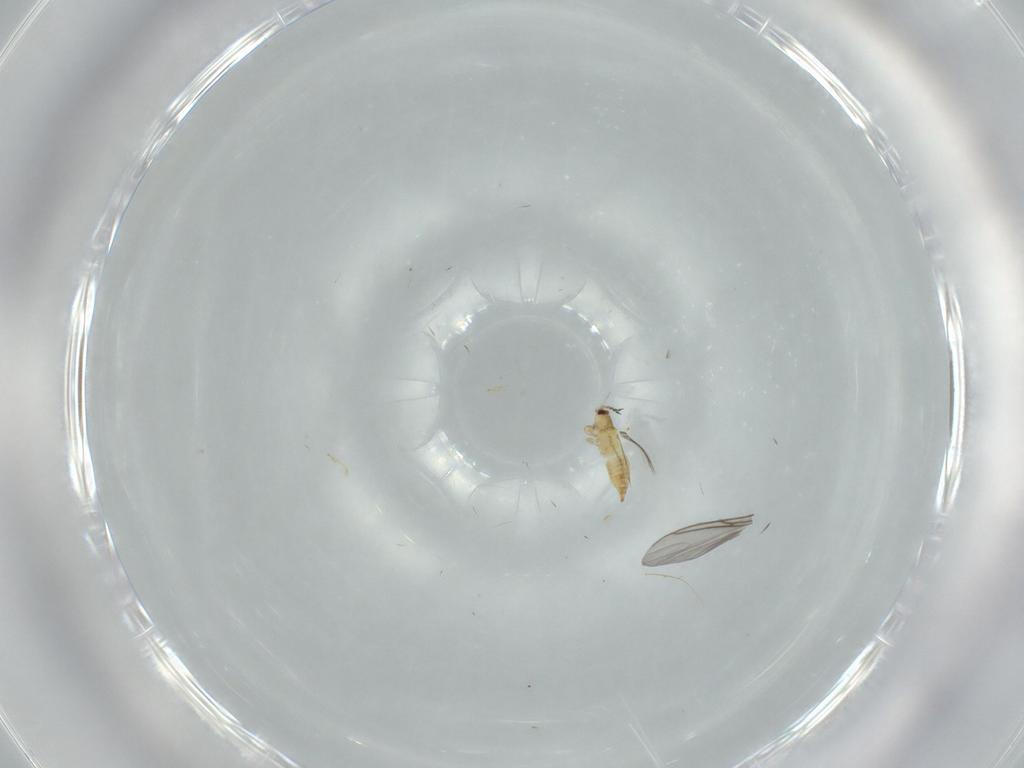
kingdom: Animalia
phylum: Arthropoda
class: Insecta
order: Thysanoptera
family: Thripidae
